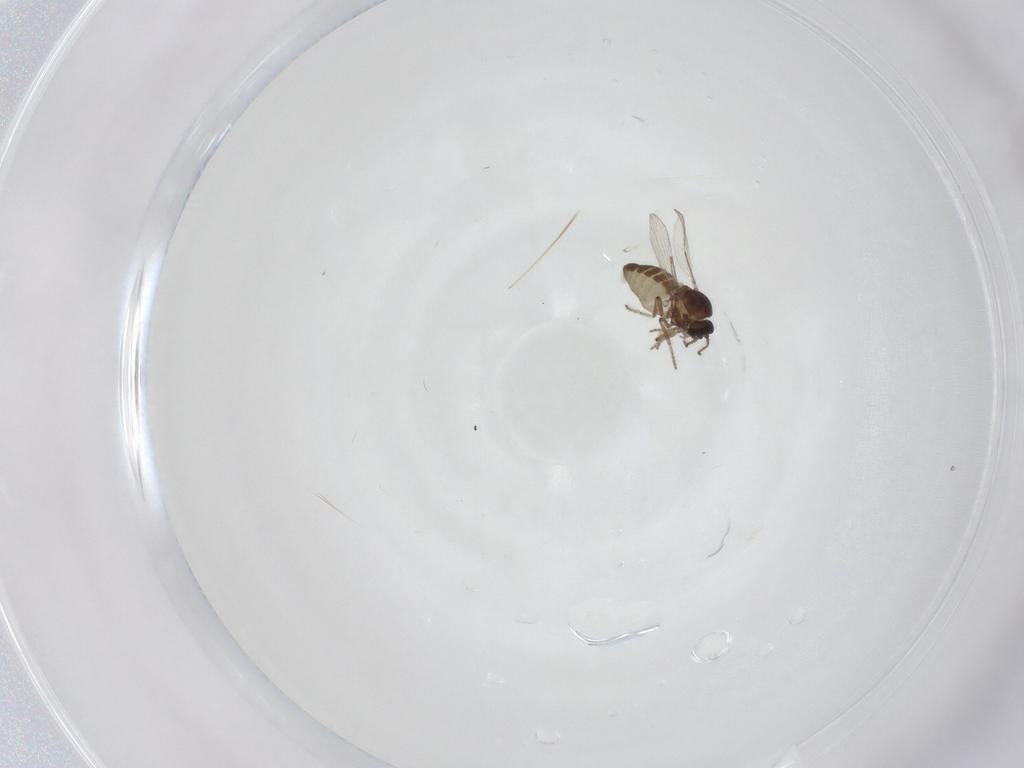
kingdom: Animalia
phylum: Arthropoda
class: Insecta
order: Diptera
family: Ceratopogonidae
